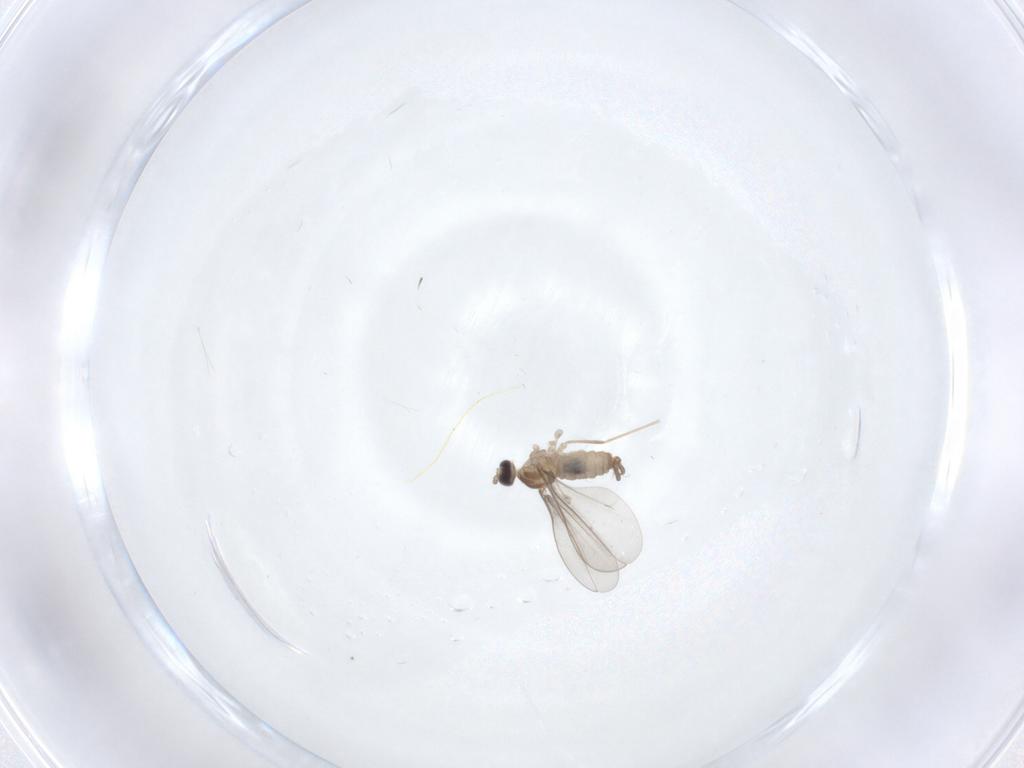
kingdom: Animalia
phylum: Arthropoda
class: Insecta
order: Diptera
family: Cecidomyiidae
